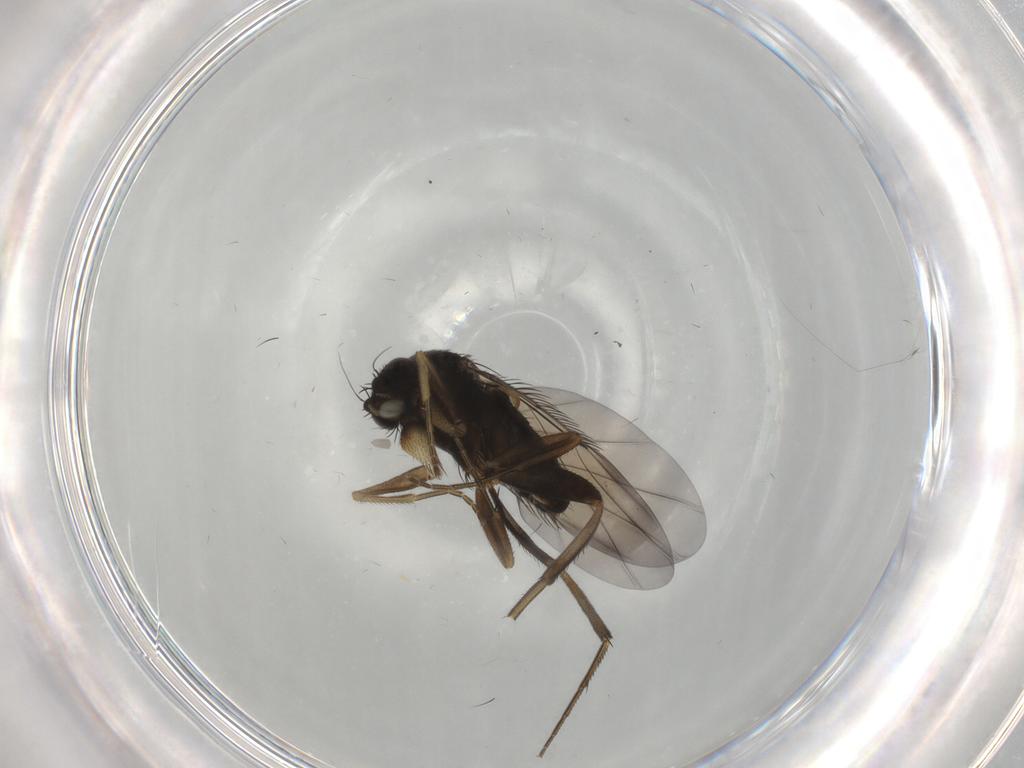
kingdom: Animalia
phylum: Arthropoda
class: Insecta
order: Diptera
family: Phoridae
